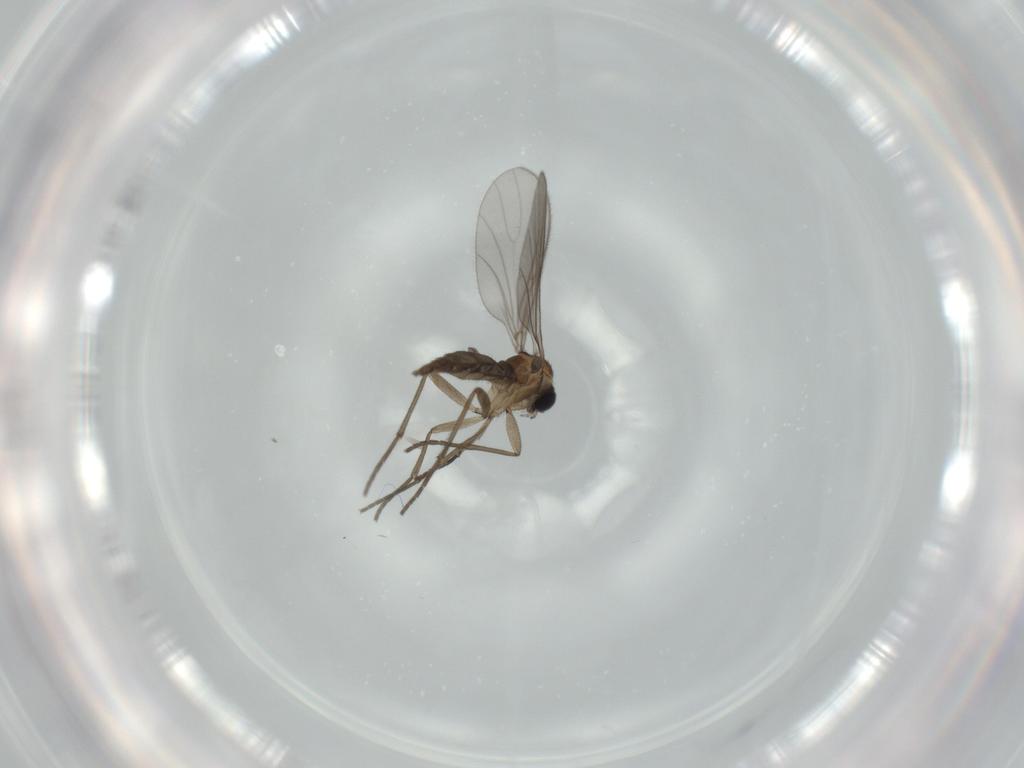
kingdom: Animalia
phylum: Arthropoda
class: Insecta
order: Diptera
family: Sciaridae
